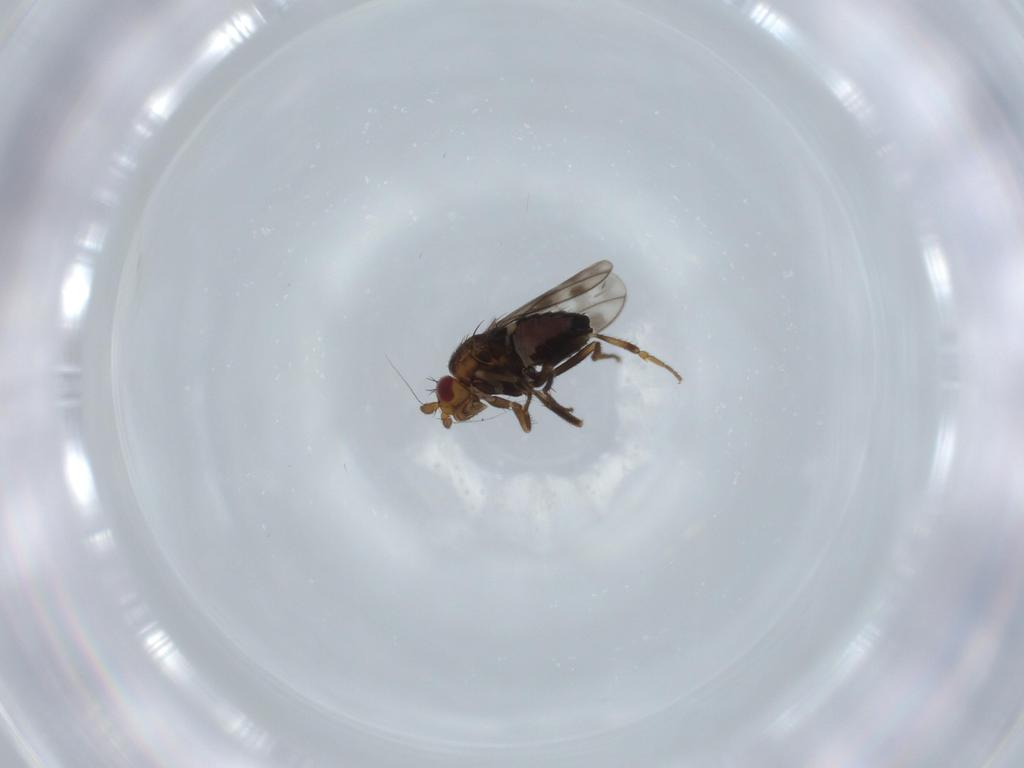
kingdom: Animalia
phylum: Arthropoda
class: Insecta
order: Diptera
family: Sphaeroceridae
